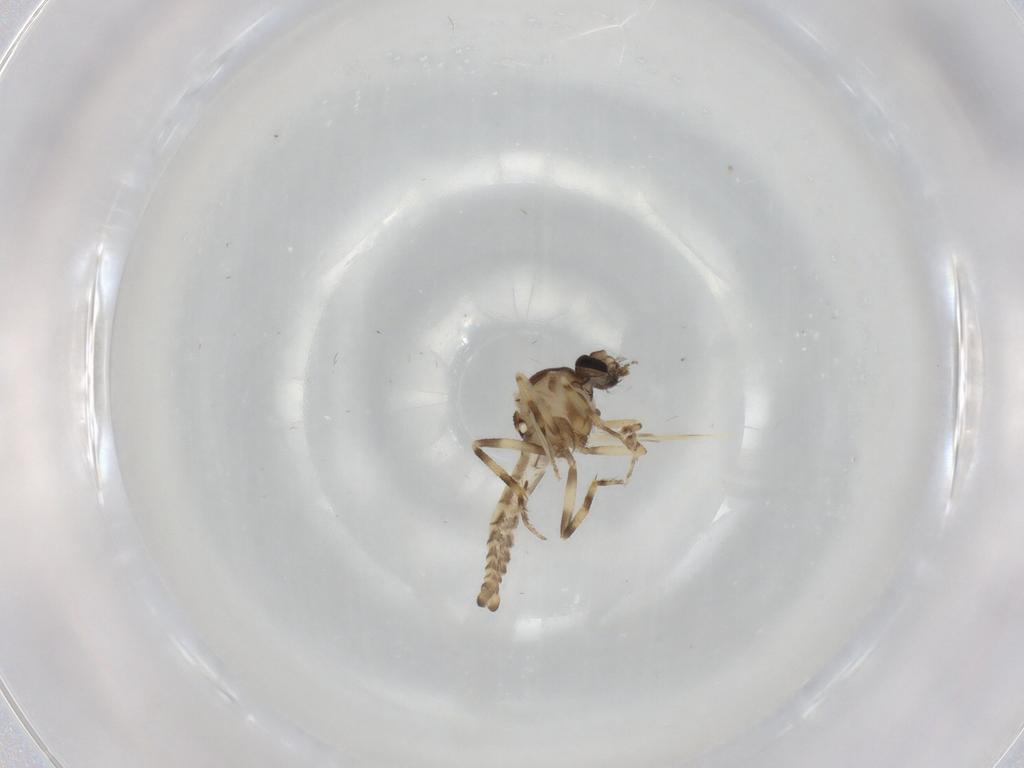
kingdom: Animalia
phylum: Arthropoda
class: Insecta
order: Diptera
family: Ceratopogonidae
